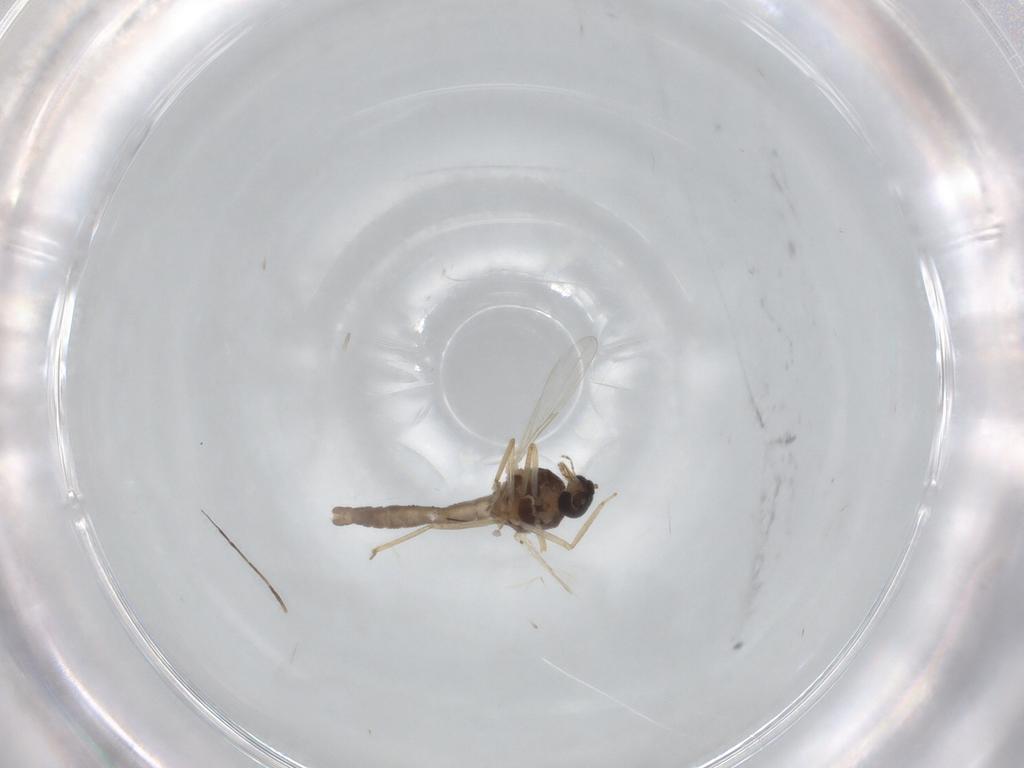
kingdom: Animalia
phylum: Arthropoda
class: Insecta
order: Diptera
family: Ceratopogonidae
